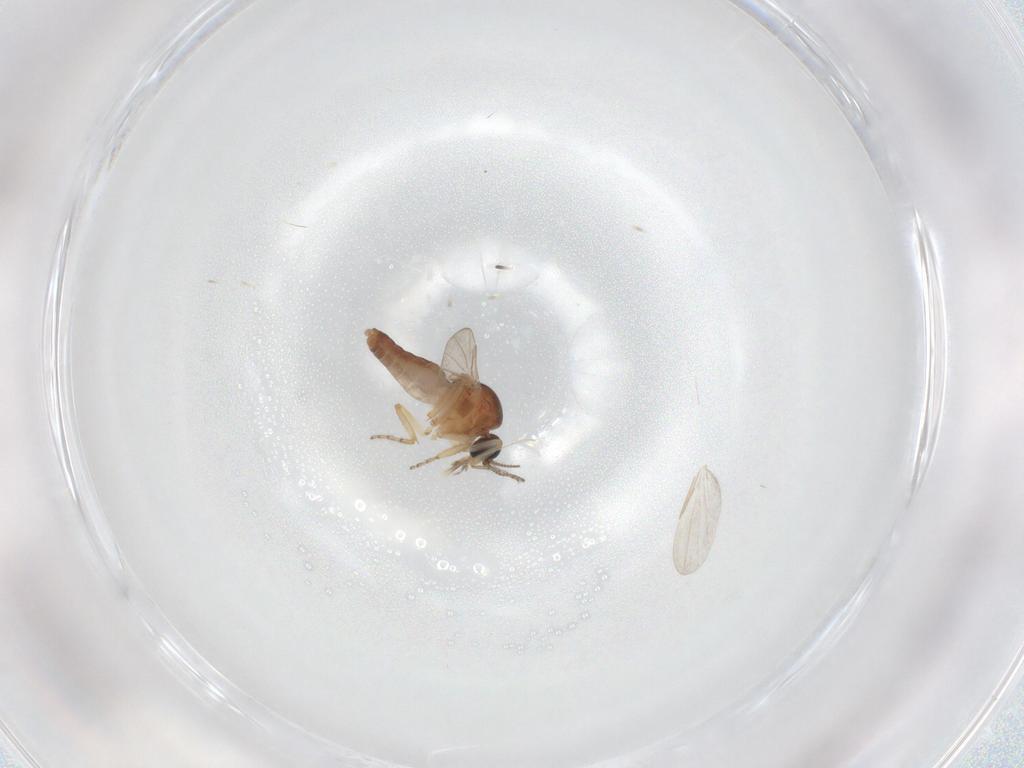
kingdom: Animalia
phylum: Arthropoda
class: Insecta
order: Diptera
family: Ceratopogonidae
